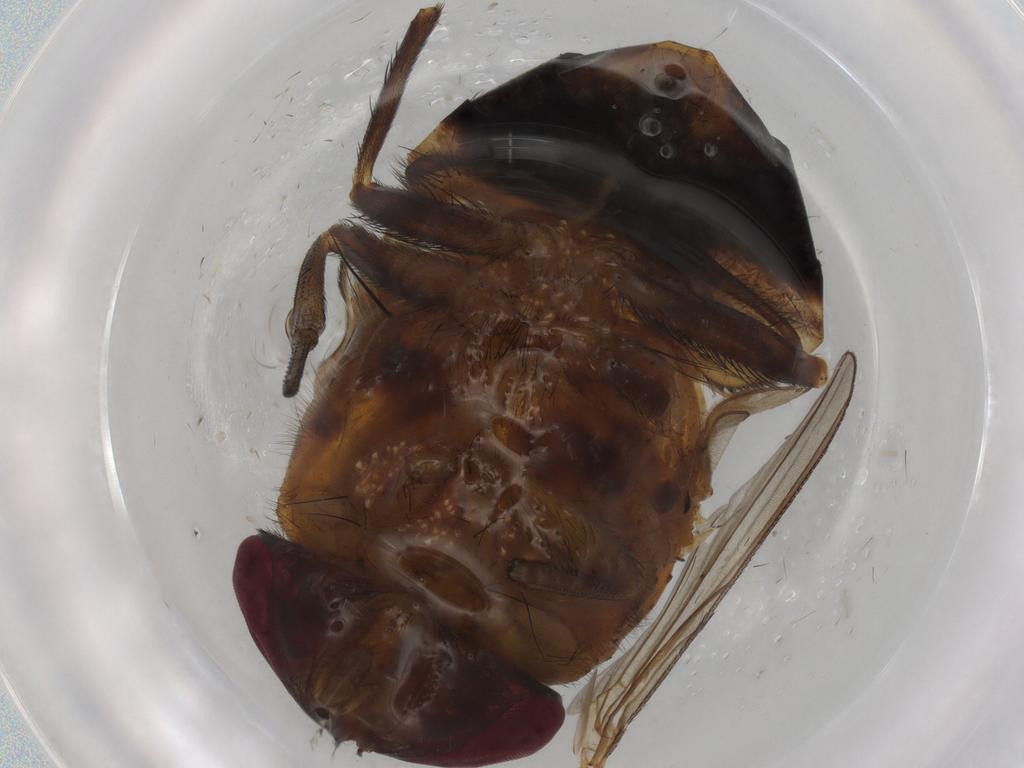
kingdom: Animalia
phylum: Arthropoda
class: Insecta
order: Diptera
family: Calliphoridae
